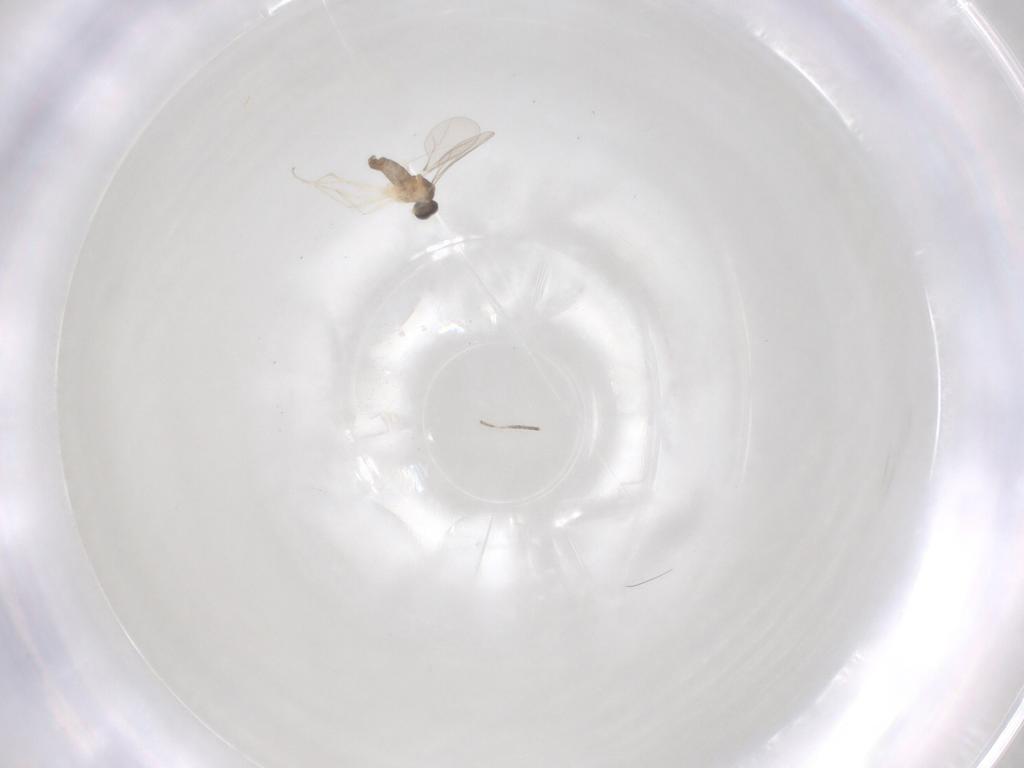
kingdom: Animalia
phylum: Arthropoda
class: Insecta
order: Diptera
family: Cecidomyiidae
